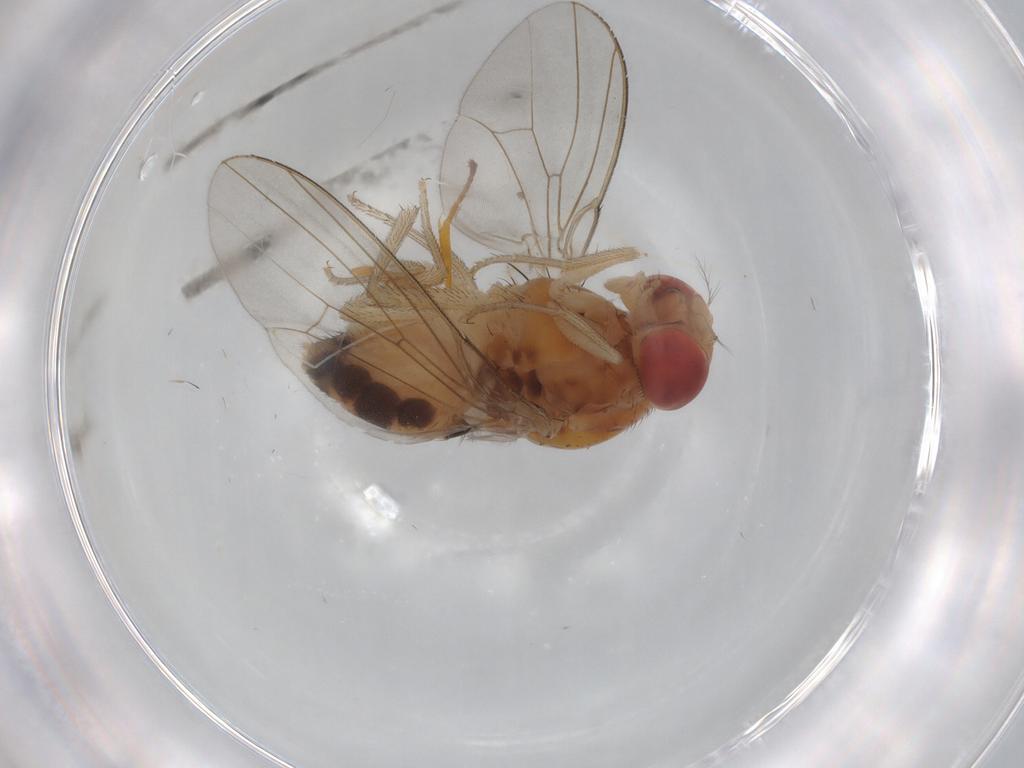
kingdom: Animalia
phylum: Arthropoda
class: Insecta
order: Diptera
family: Drosophilidae
